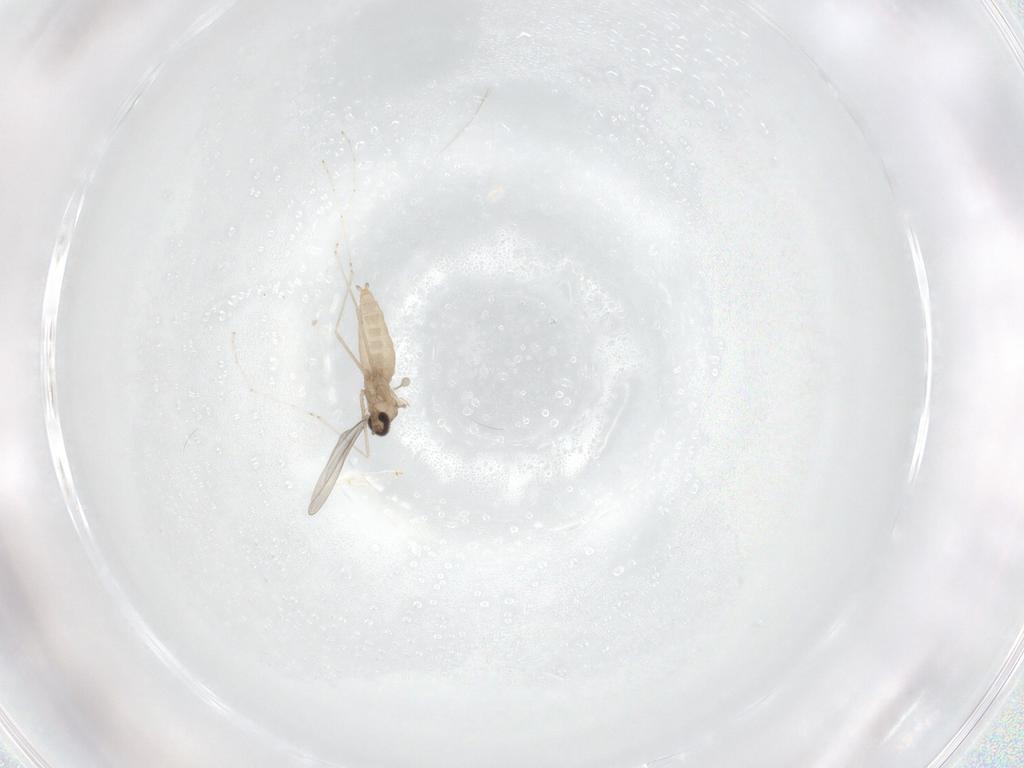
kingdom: Animalia
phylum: Arthropoda
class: Insecta
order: Diptera
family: Cecidomyiidae
